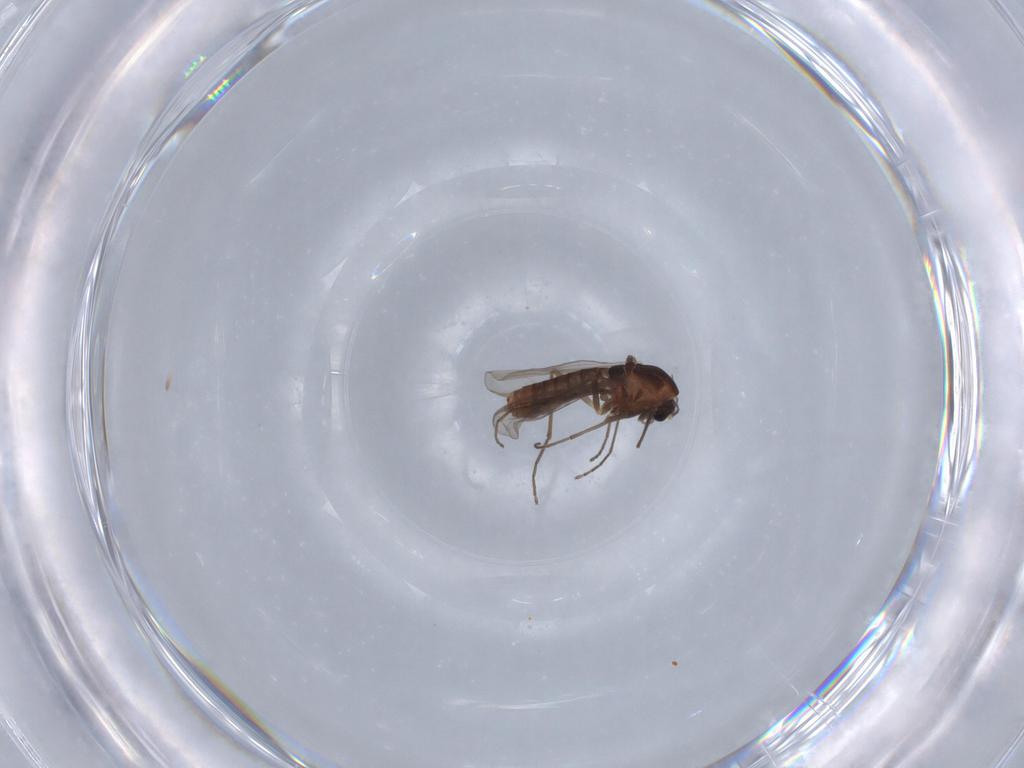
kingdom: Animalia
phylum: Arthropoda
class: Insecta
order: Diptera
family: Chironomidae
